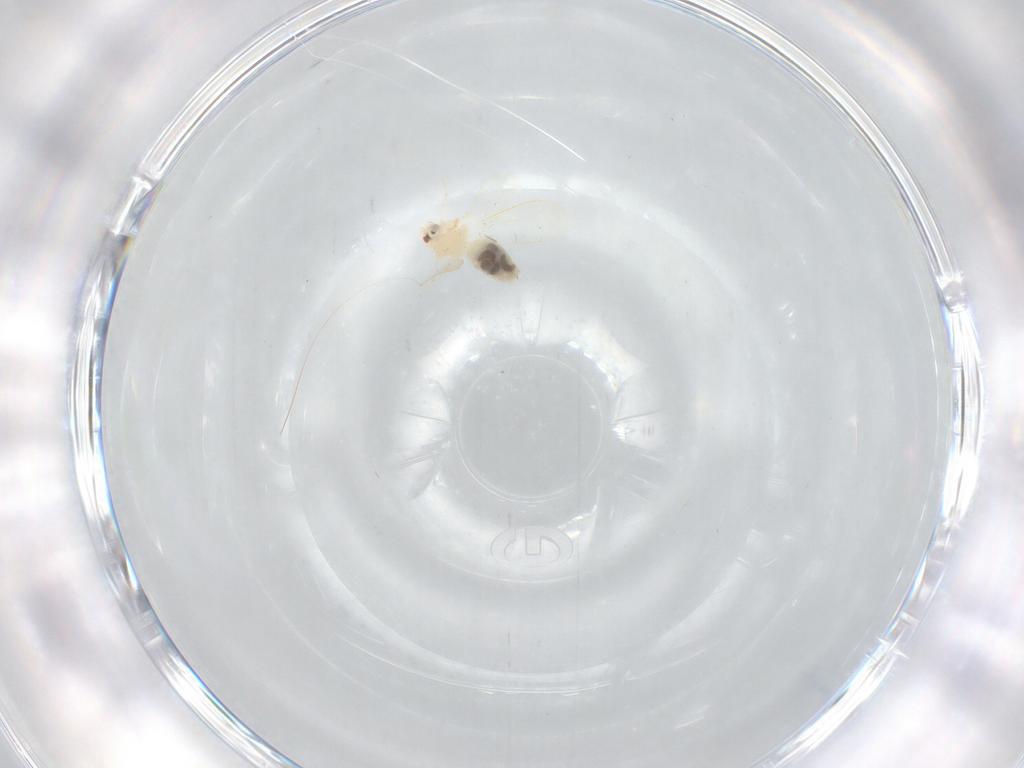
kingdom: Animalia
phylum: Arthropoda
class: Insecta
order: Hemiptera
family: Aleyrodidae
